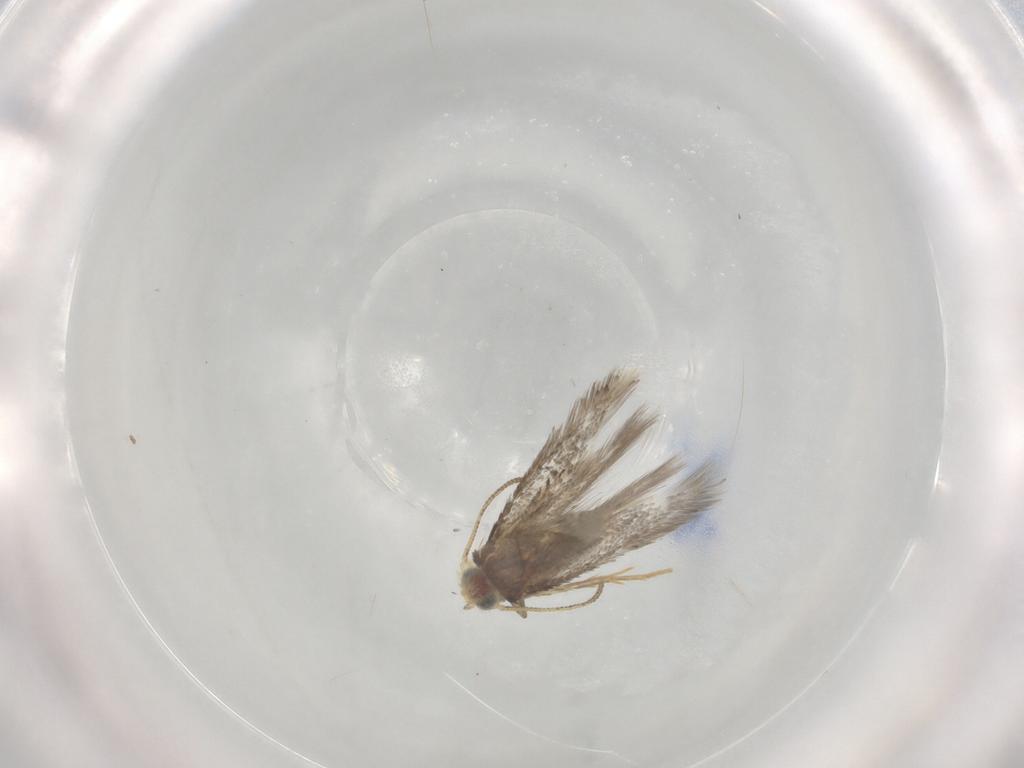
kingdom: Animalia
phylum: Arthropoda
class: Insecta
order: Lepidoptera
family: Nepticulidae
